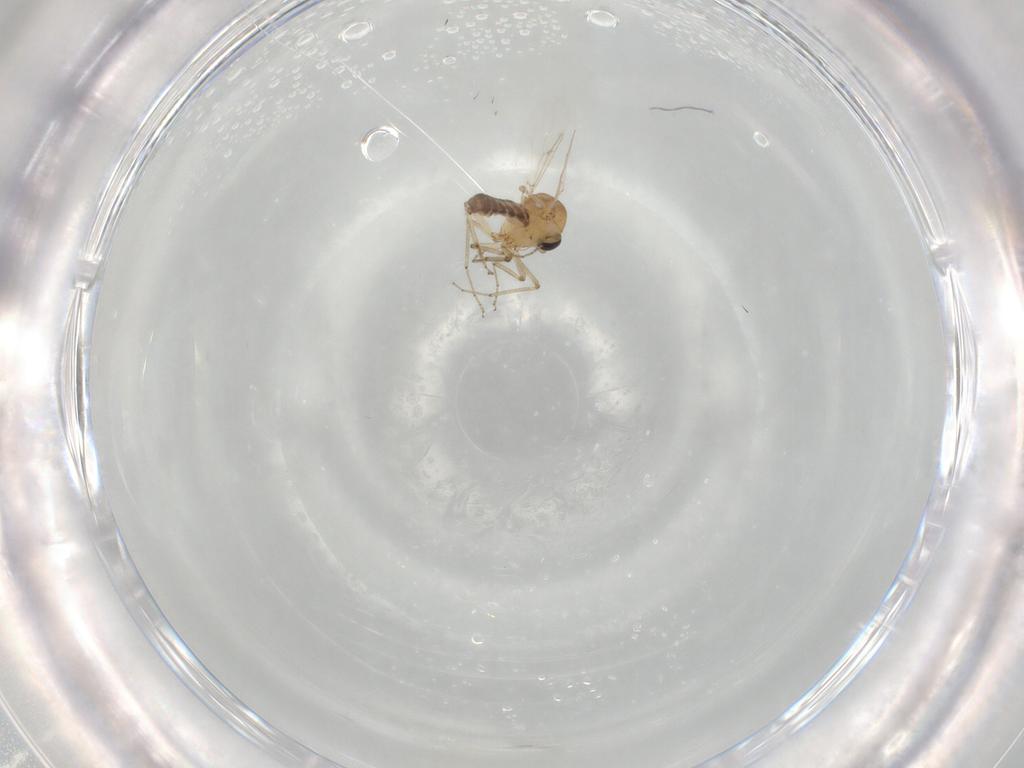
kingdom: Animalia
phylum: Arthropoda
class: Insecta
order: Diptera
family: Ceratopogonidae
